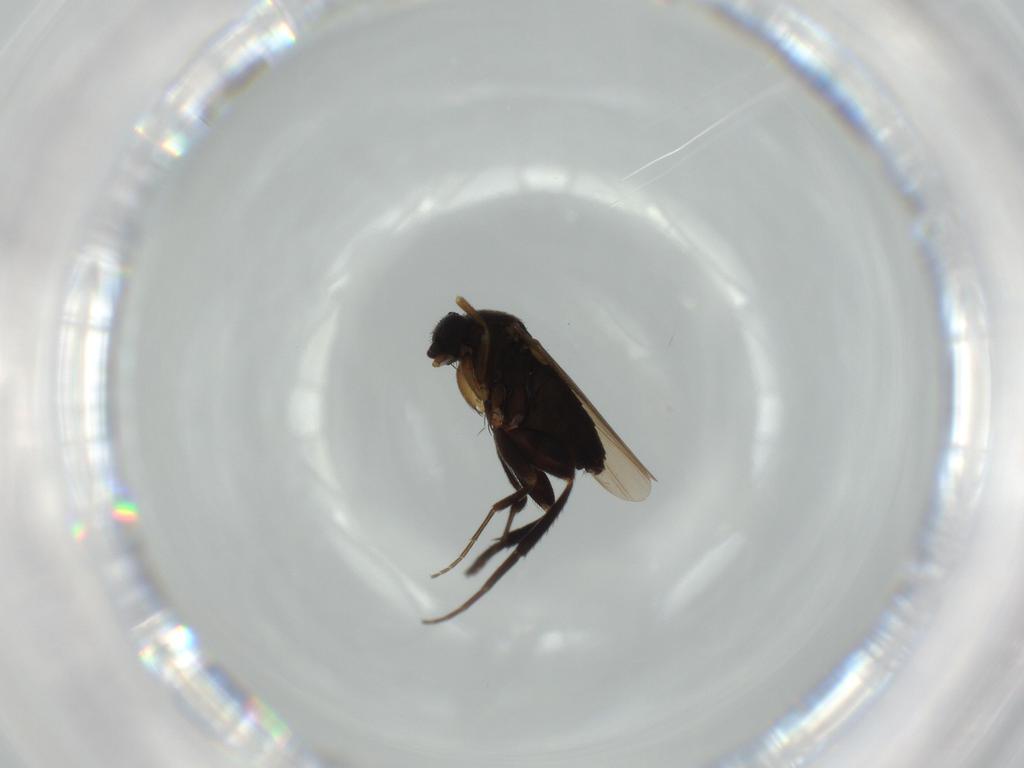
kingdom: Animalia
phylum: Arthropoda
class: Insecta
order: Diptera
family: Phoridae
